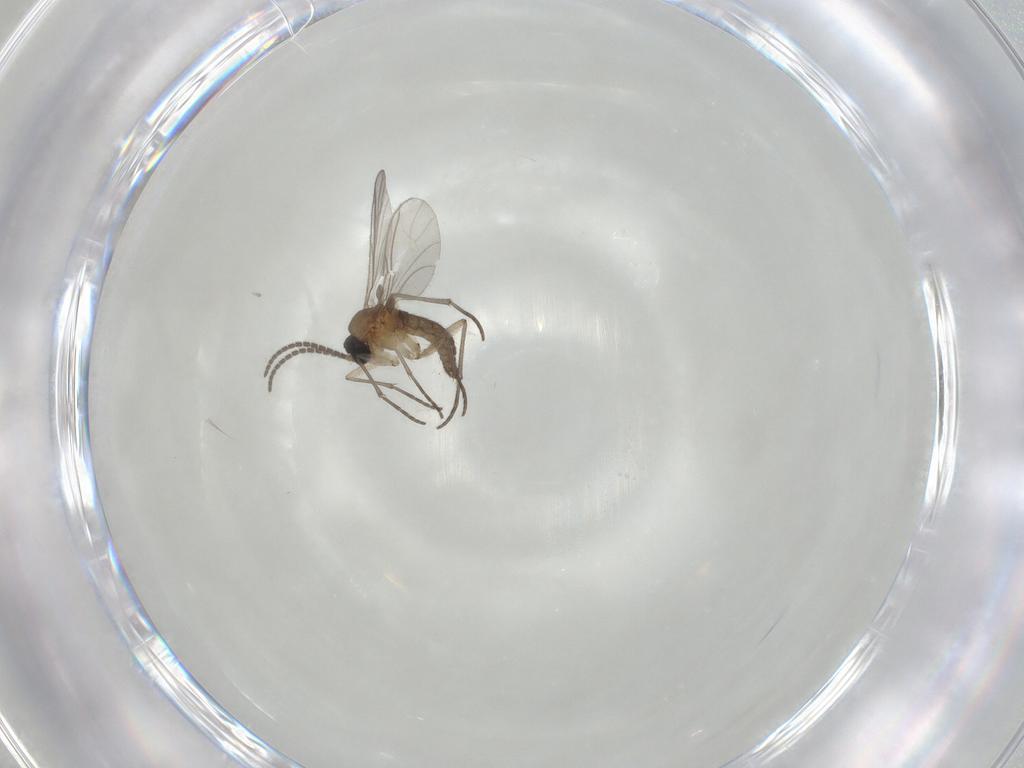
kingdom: Animalia
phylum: Arthropoda
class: Insecta
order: Diptera
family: Sciaridae
